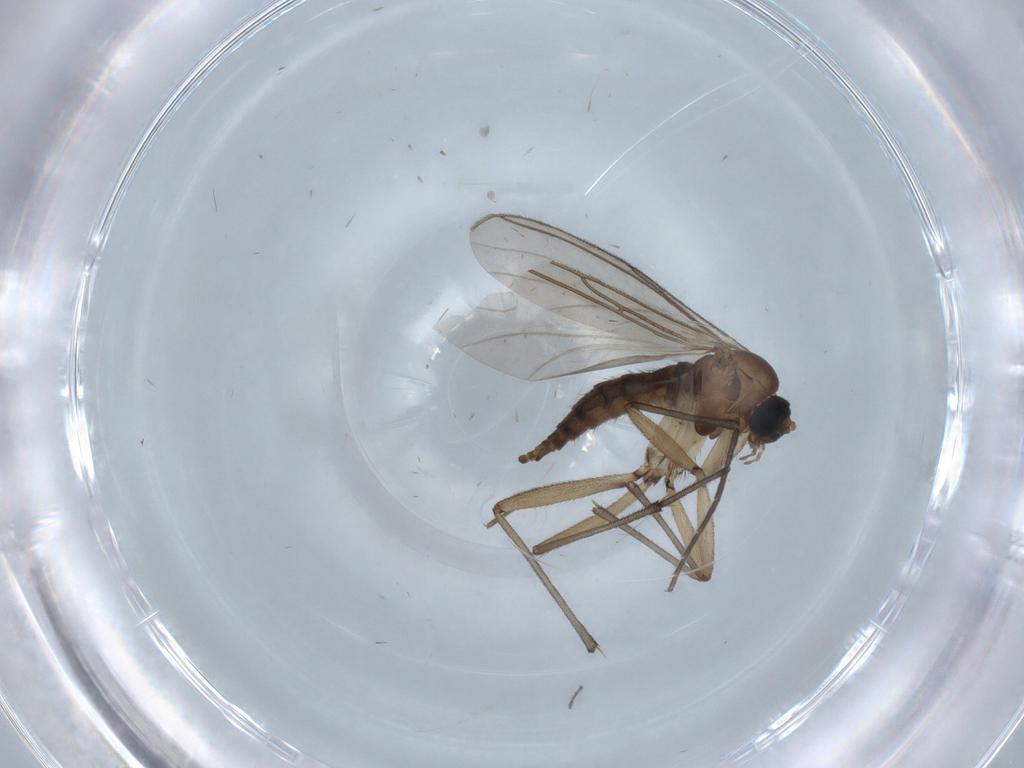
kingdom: Animalia
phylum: Arthropoda
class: Insecta
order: Diptera
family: Sciaridae
